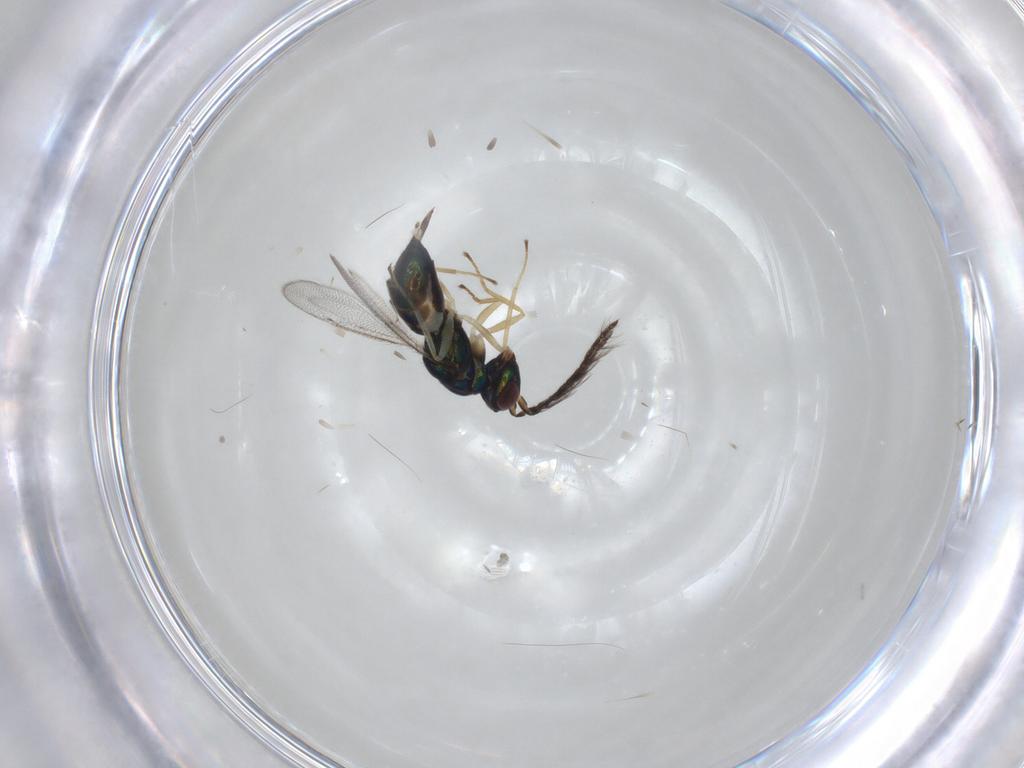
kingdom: Animalia
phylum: Arthropoda
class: Insecta
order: Hymenoptera
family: Eulophidae
